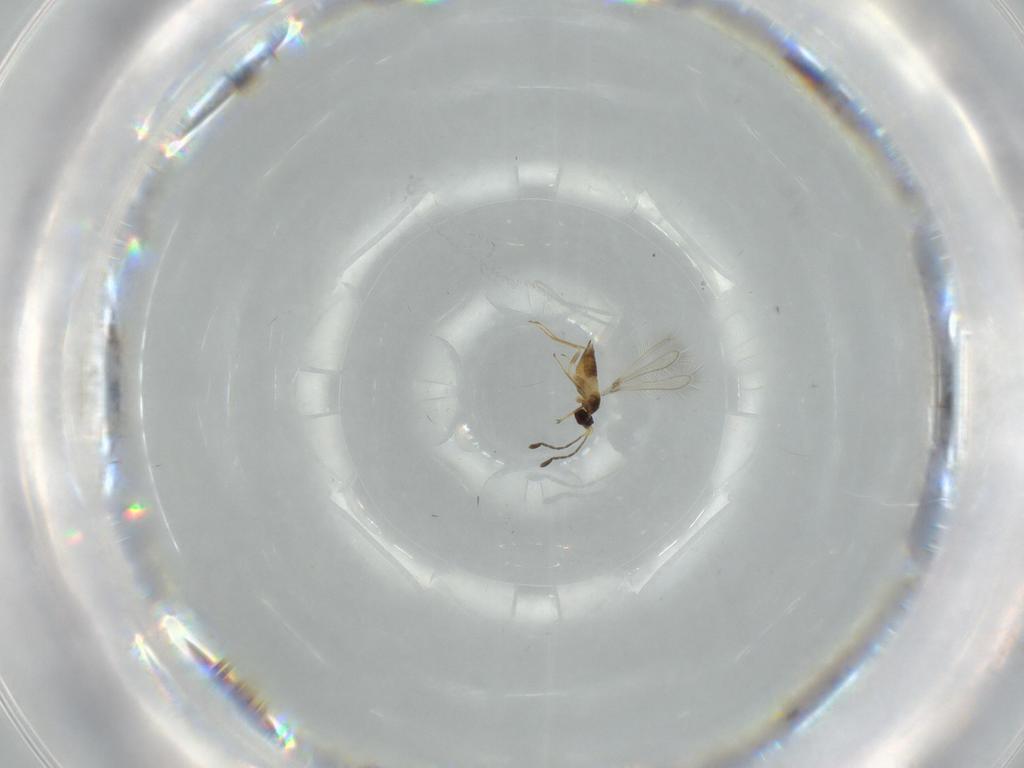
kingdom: Animalia
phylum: Arthropoda
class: Insecta
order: Hymenoptera
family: Mymaridae
